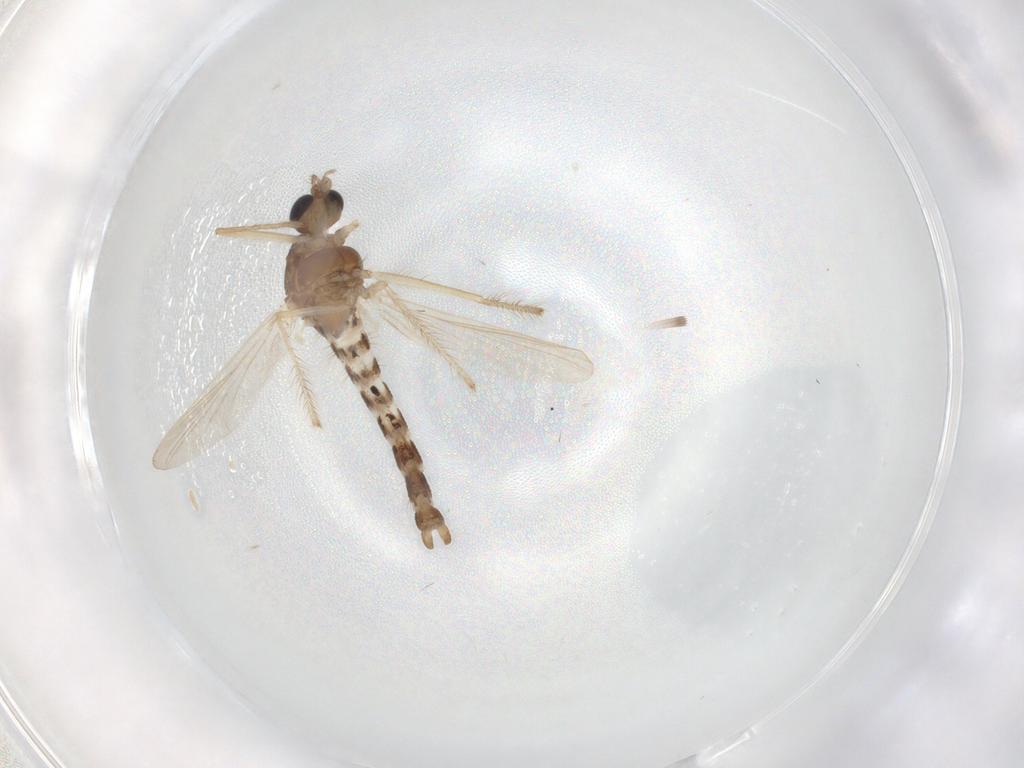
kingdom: Animalia
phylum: Arthropoda
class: Insecta
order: Diptera
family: Chironomidae
